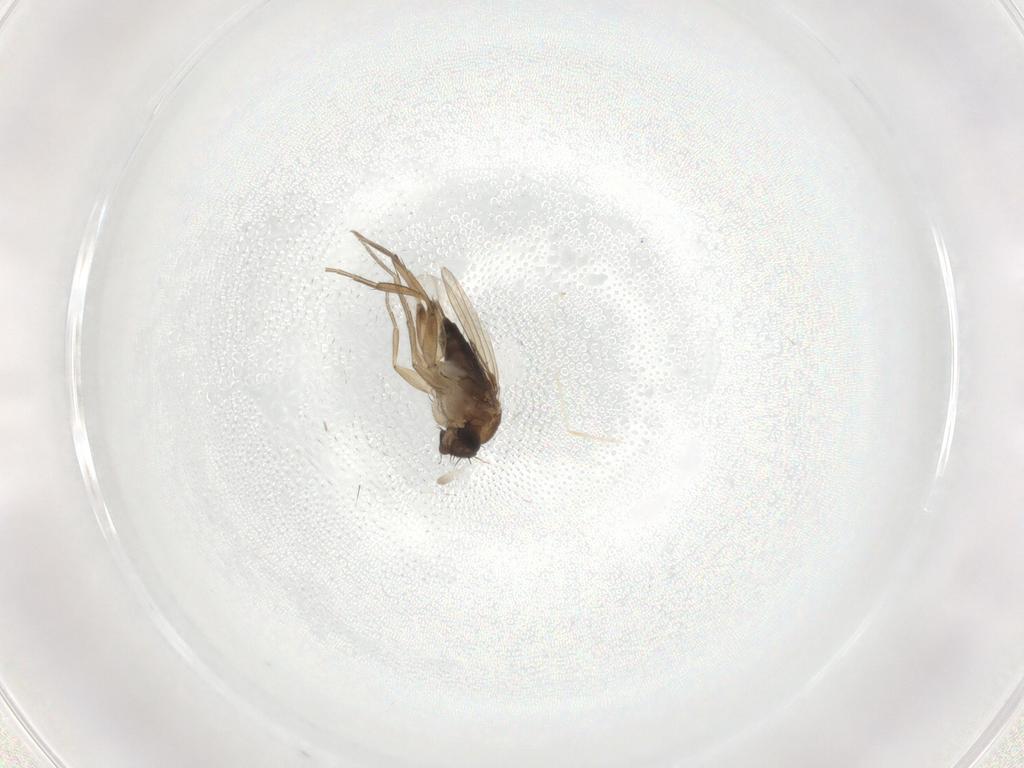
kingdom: Animalia
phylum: Arthropoda
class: Insecta
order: Diptera
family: Phoridae
